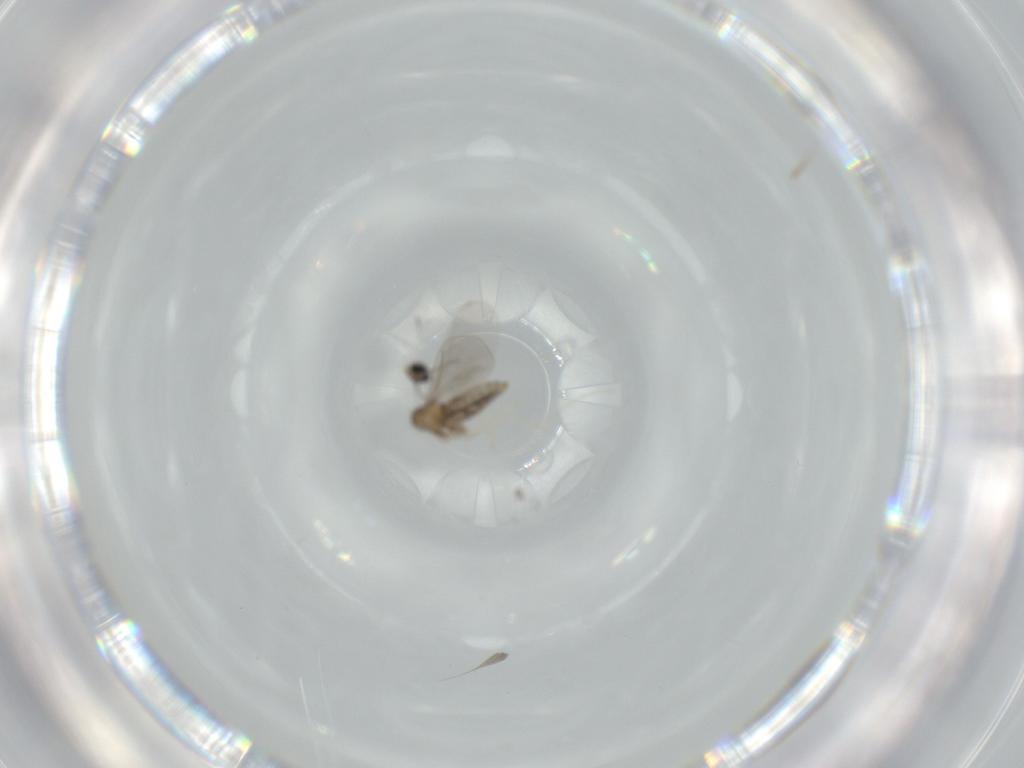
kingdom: Animalia
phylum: Arthropoda
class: Insecta
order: Diptera
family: Cecidomyiidae
